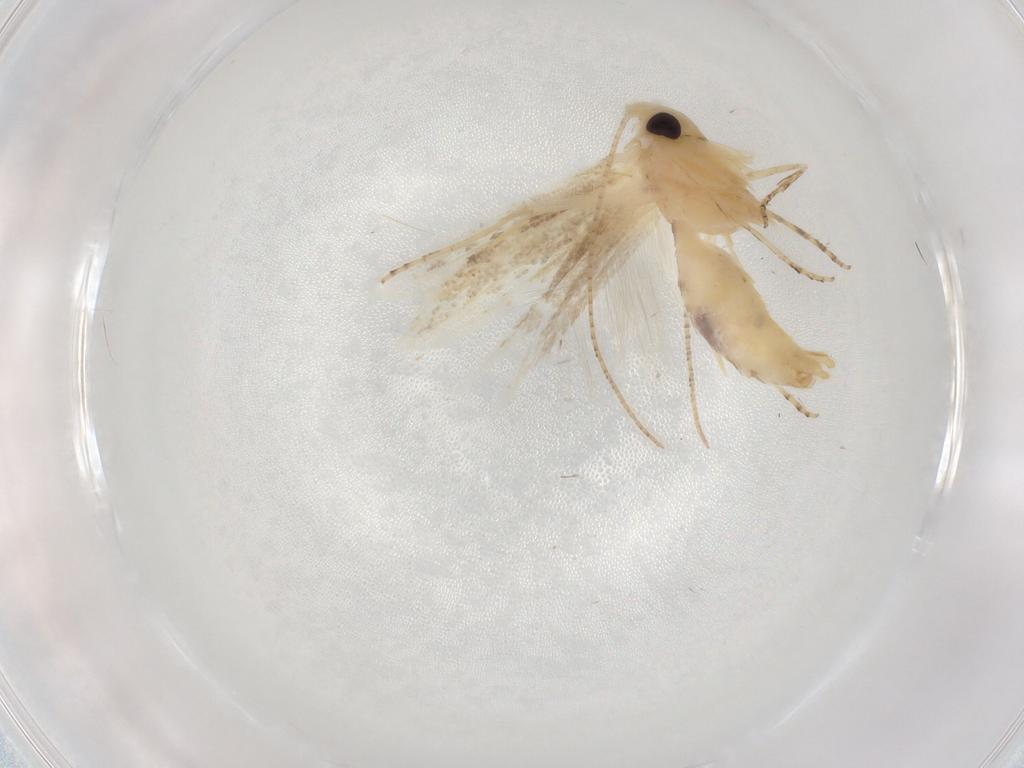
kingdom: Animalia
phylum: Arthropoda
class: Insecta
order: Lepidoptera
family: Bucculatricidae
